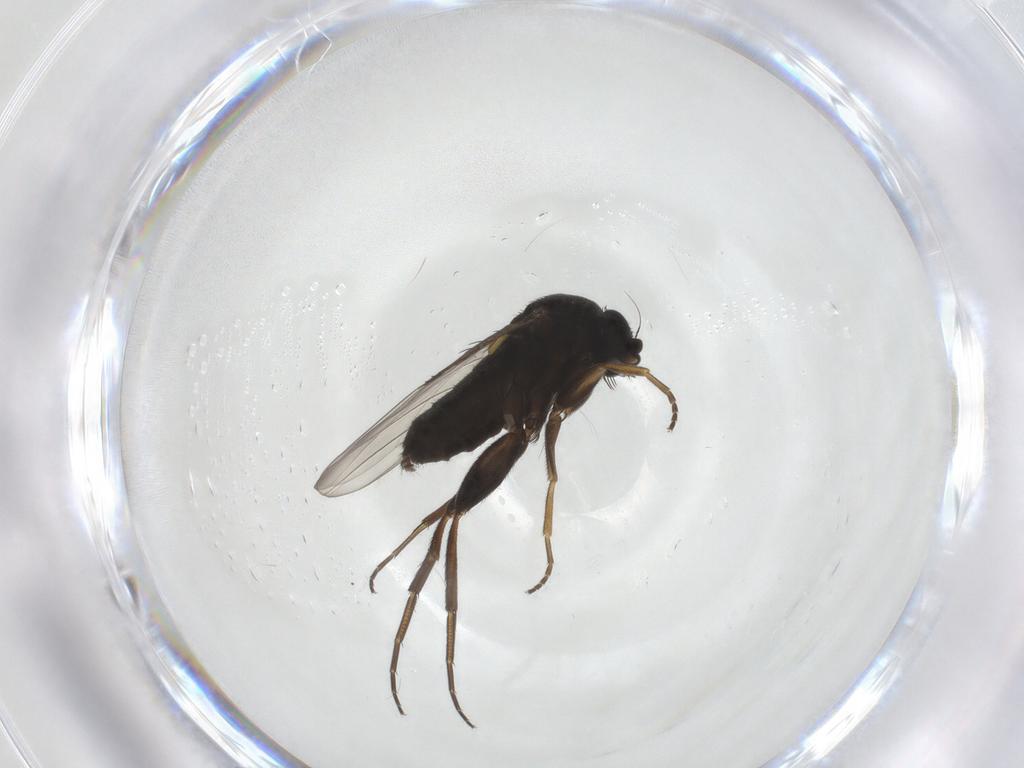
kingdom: Animalia
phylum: Arthropoda
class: Insecta
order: Diptera
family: Phoridae
